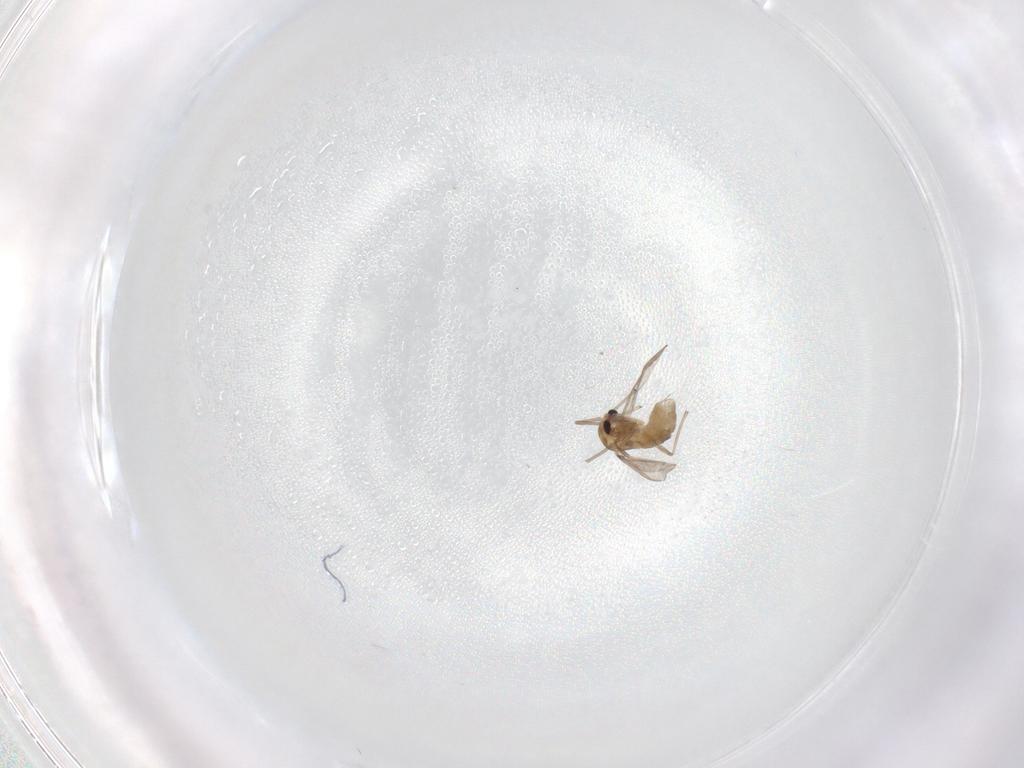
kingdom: Animalia
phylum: Arthropoda
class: Insecta
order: Diptera
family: Chironomidae
